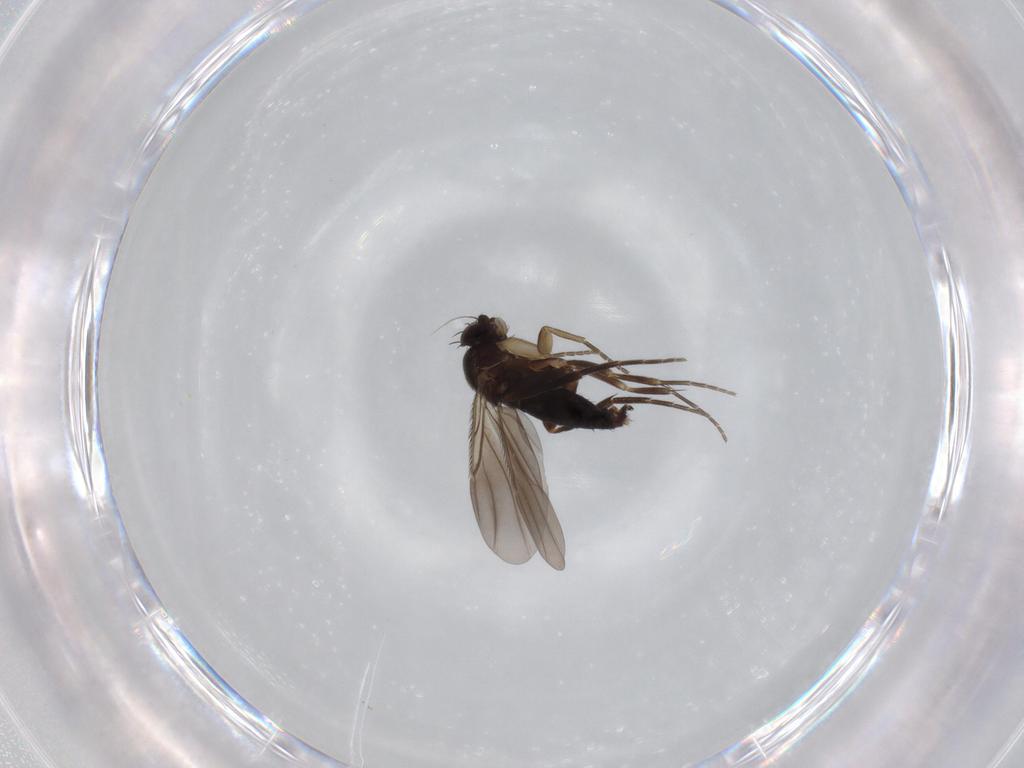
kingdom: Animalia
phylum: Arthropoda
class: Insecta
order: Diptera
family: Phoridae
